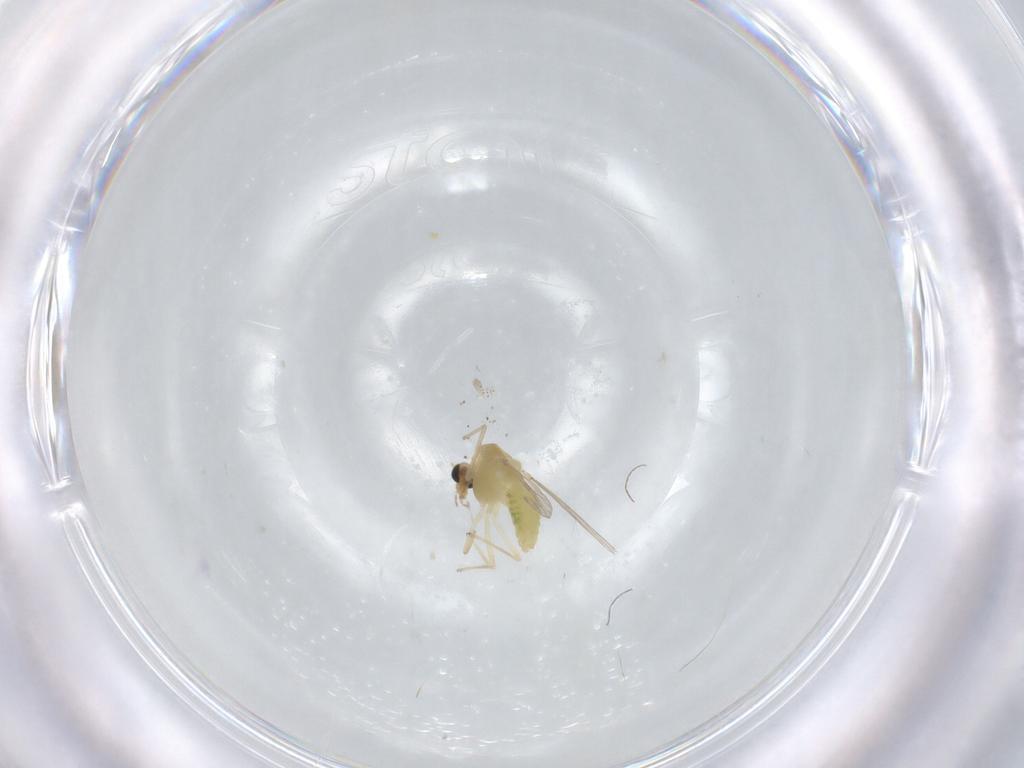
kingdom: Animalia
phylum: Arthropoda
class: Insecta
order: Diptera
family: Chironomidae
